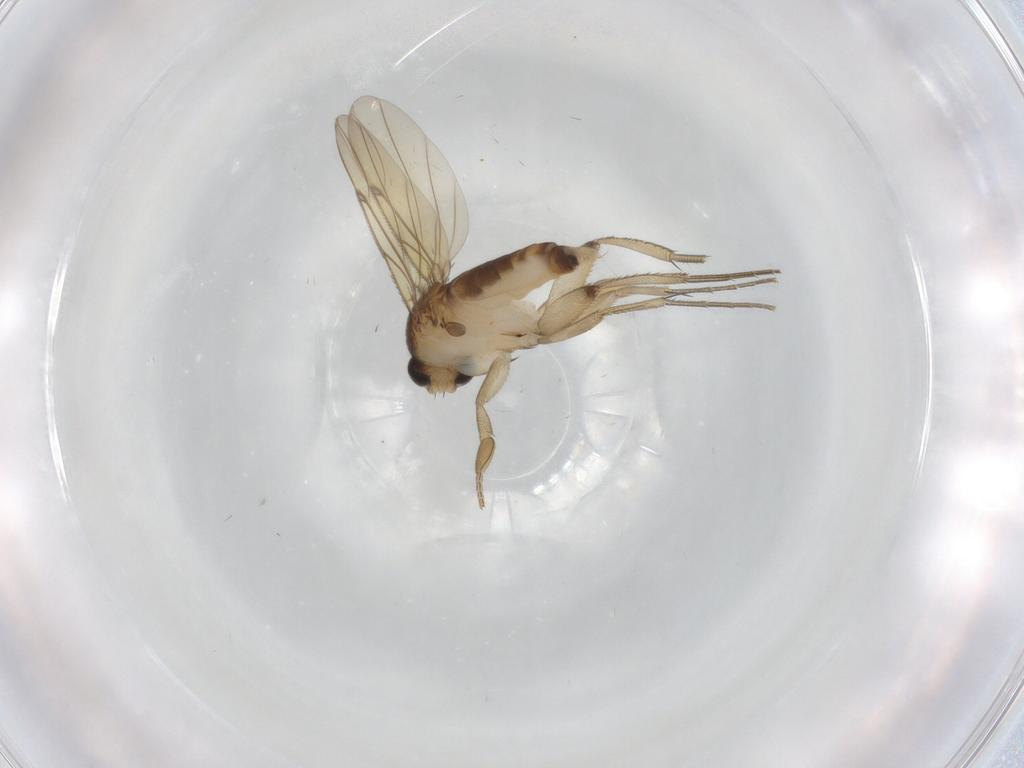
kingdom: Animalia
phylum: Arthropoda
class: Insecta
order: Diptera
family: Phoridae
